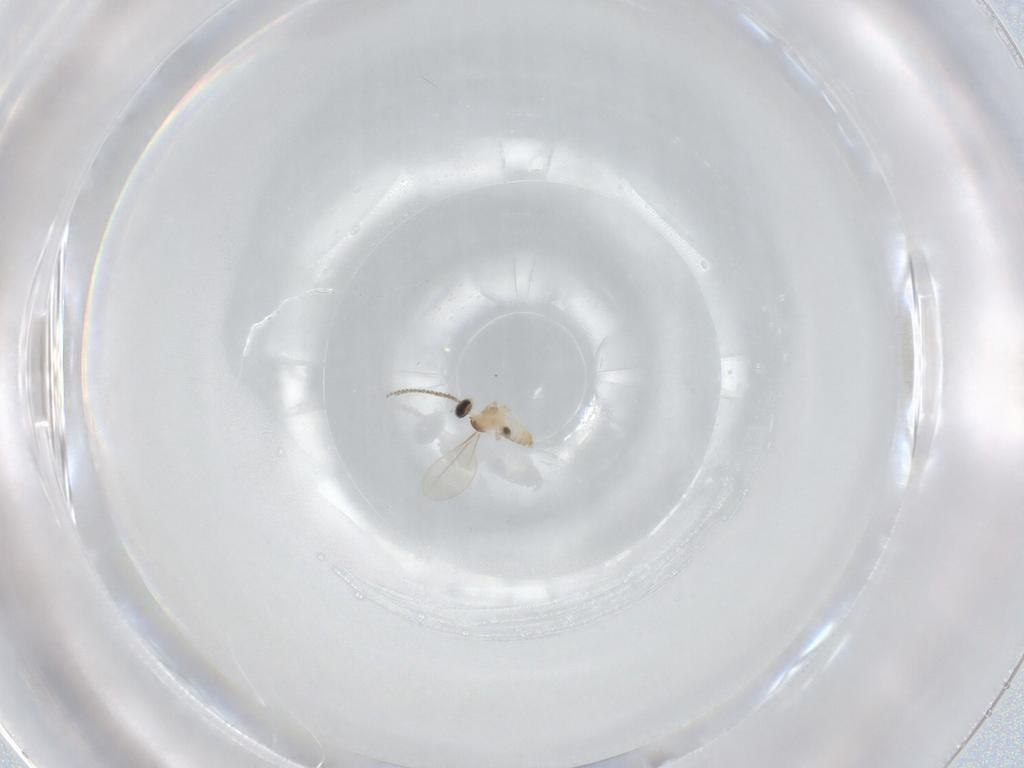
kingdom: Animalia
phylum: Arthropoda
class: Insecta
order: Diptera
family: Cecidomyiidae
